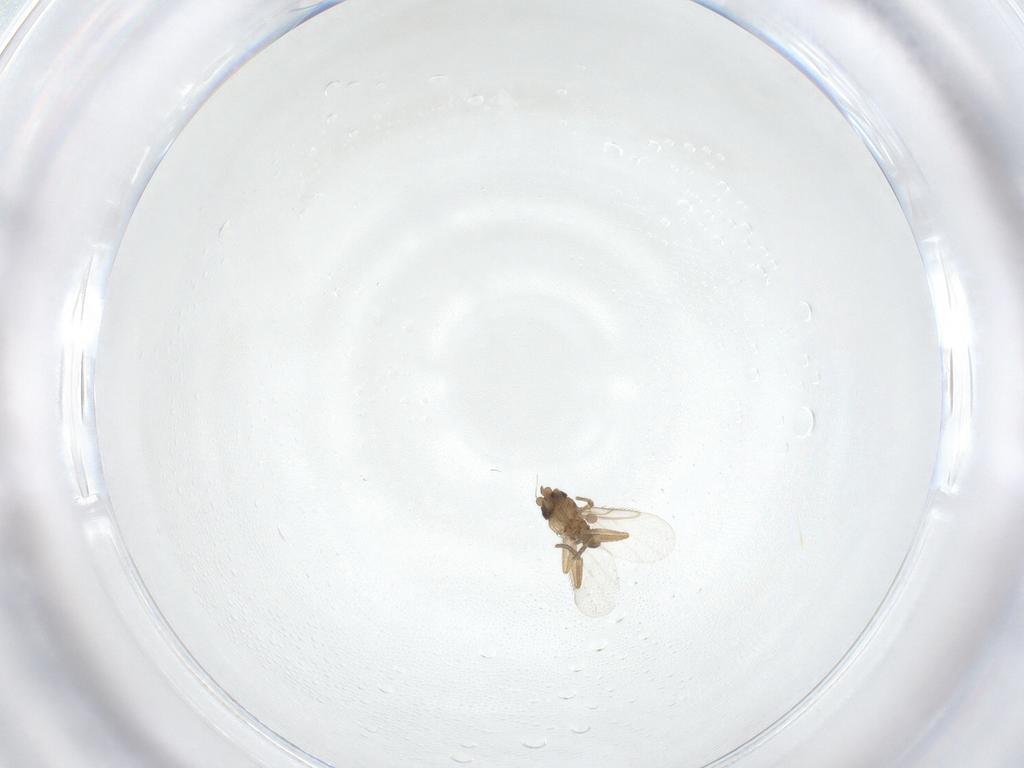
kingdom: Animalia
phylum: Arthropoda
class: Insecta
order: Diptera
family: Phoridae
